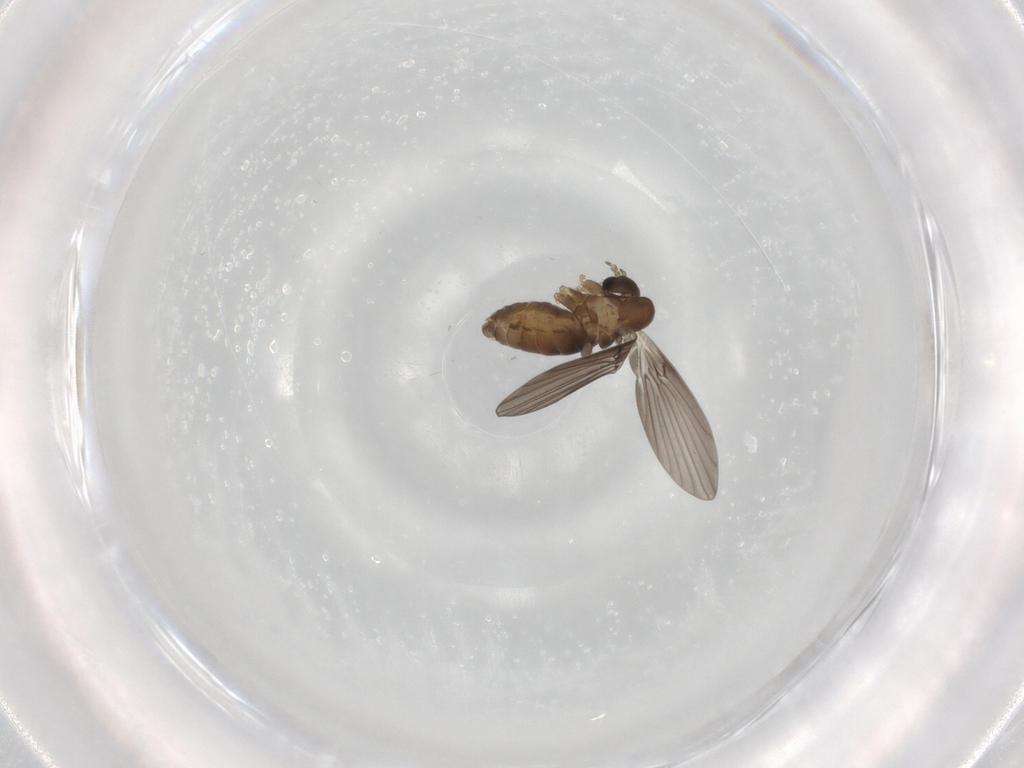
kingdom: Animalia
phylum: Arthropoda
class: Insecta
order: Diptera
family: Psychodidae
